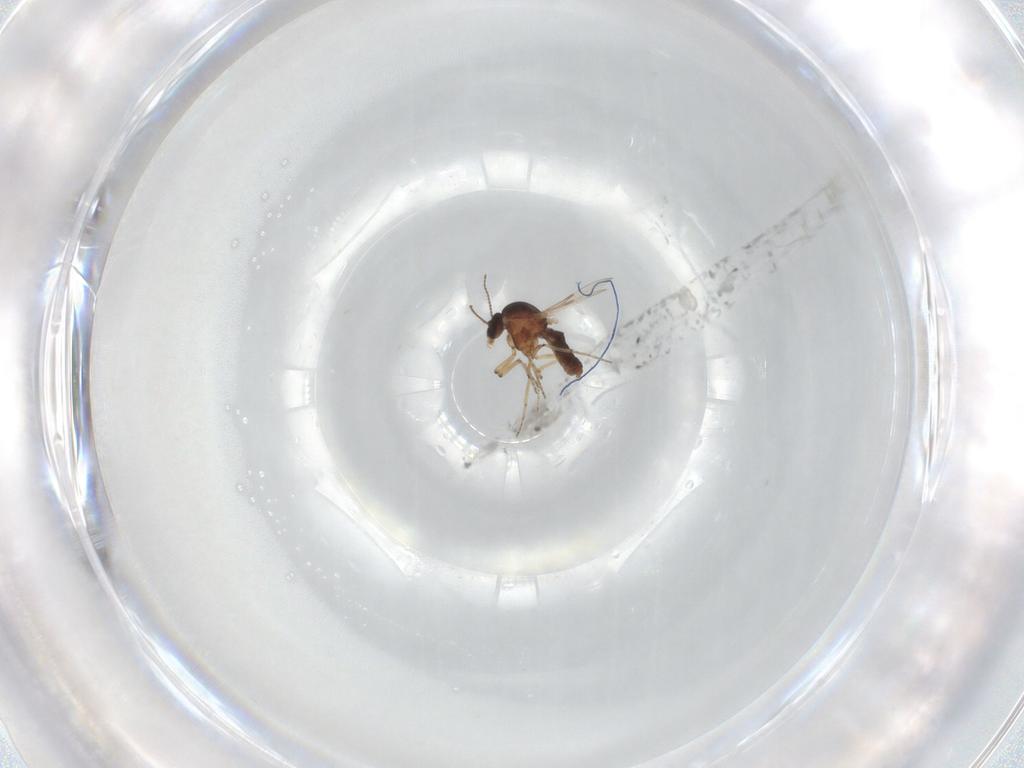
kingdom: Animalia
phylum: Arthropoda
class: Insecta
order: Diptera
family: Ceratopogonidae
